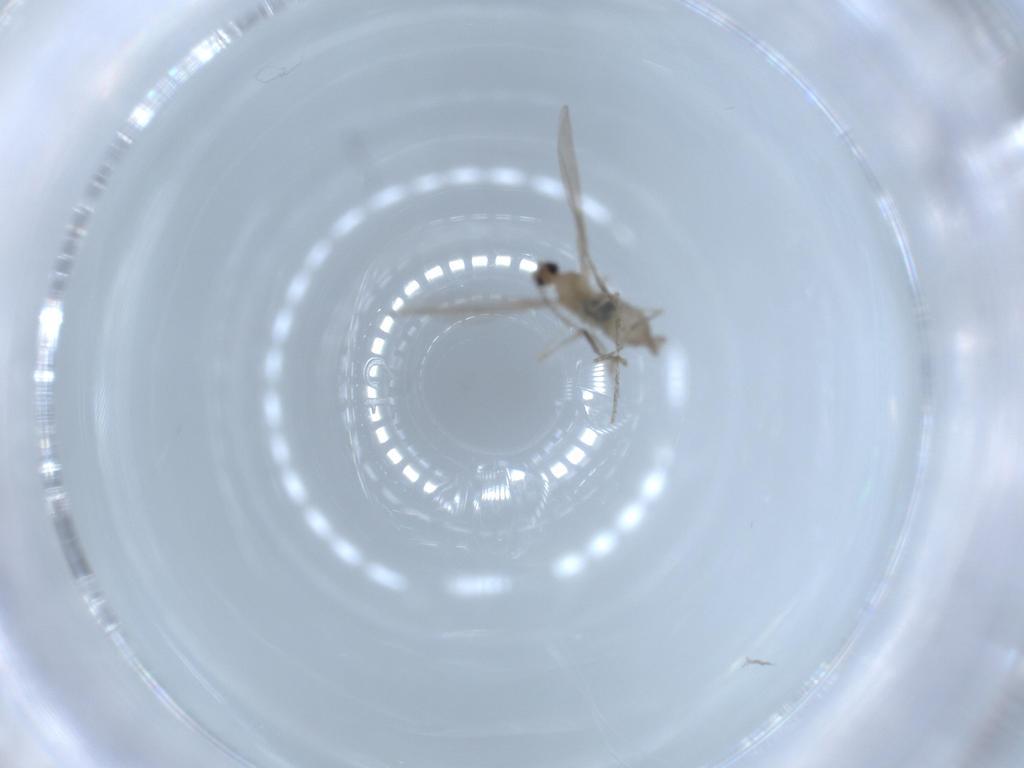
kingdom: Animalia
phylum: Arthropoda
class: Insecta
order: Diptera
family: Cecidomyiidae
